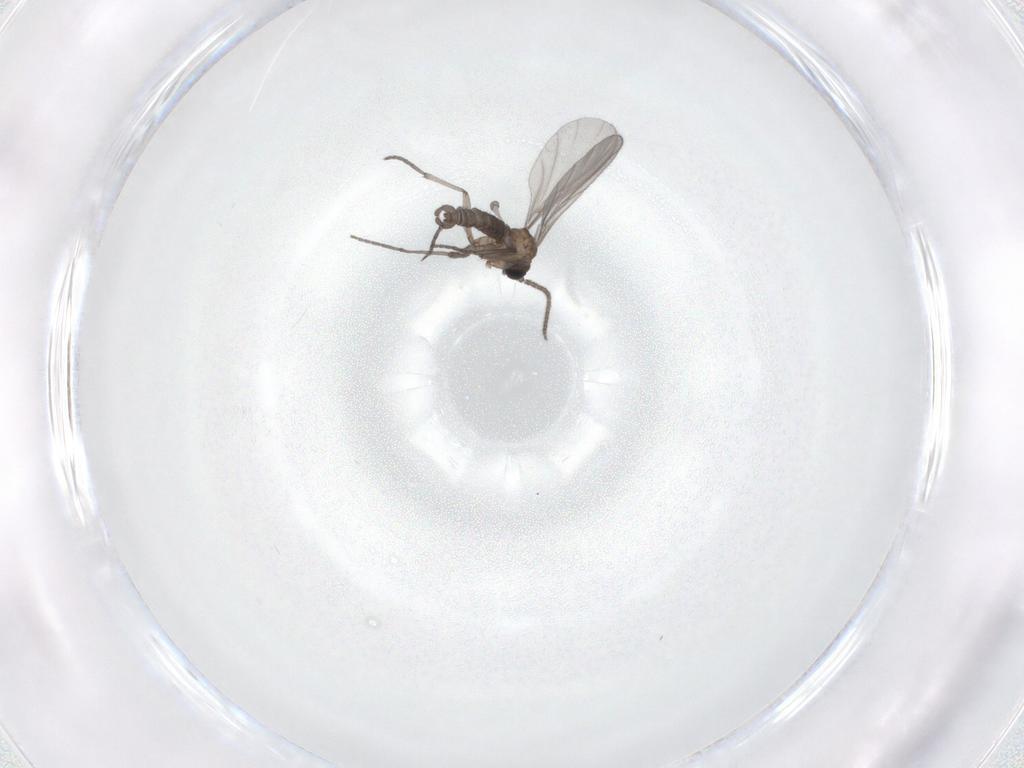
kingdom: Animalia
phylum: Arthropoda
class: Insecta
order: Diptera
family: Sciaridae
